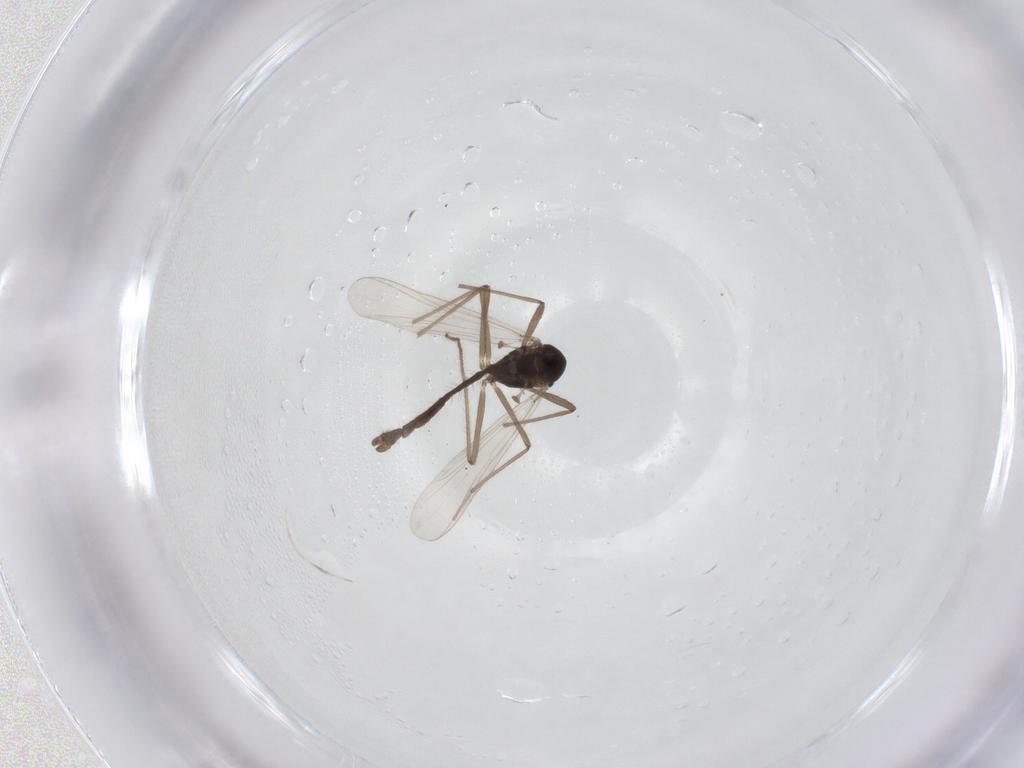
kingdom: Animalia
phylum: Arthropoda
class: Insecta
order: Diptera
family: Chironomidae
